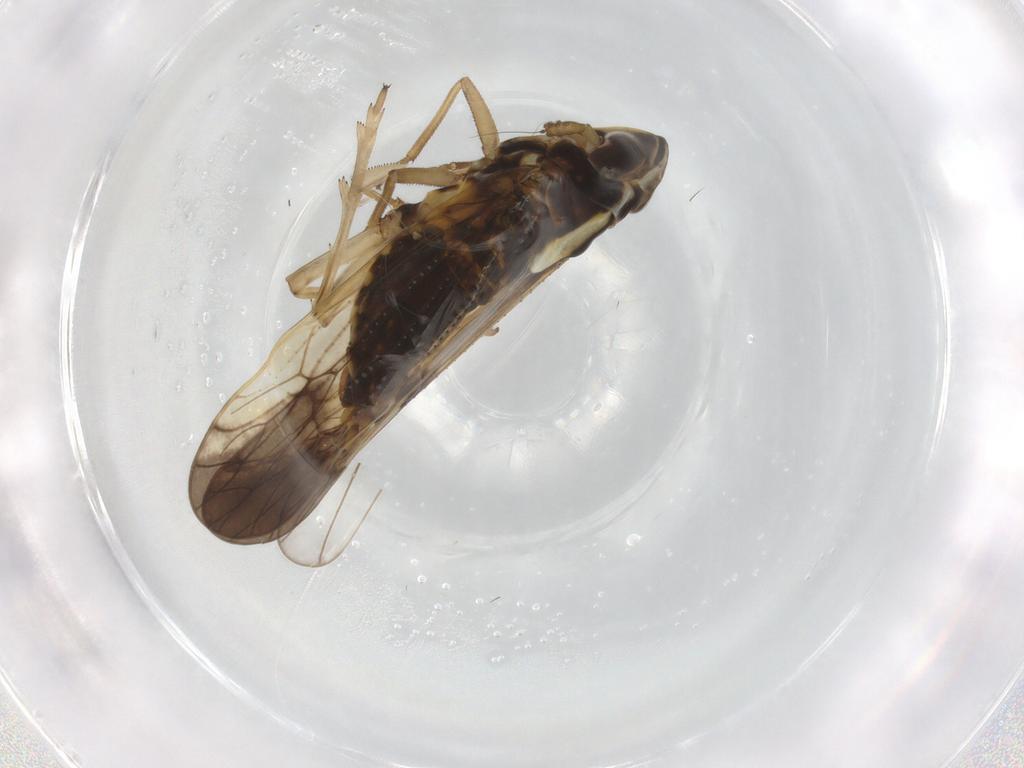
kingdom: Animalia
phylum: Arthropoda
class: Insecta
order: Hemiptera
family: Delphacidae
